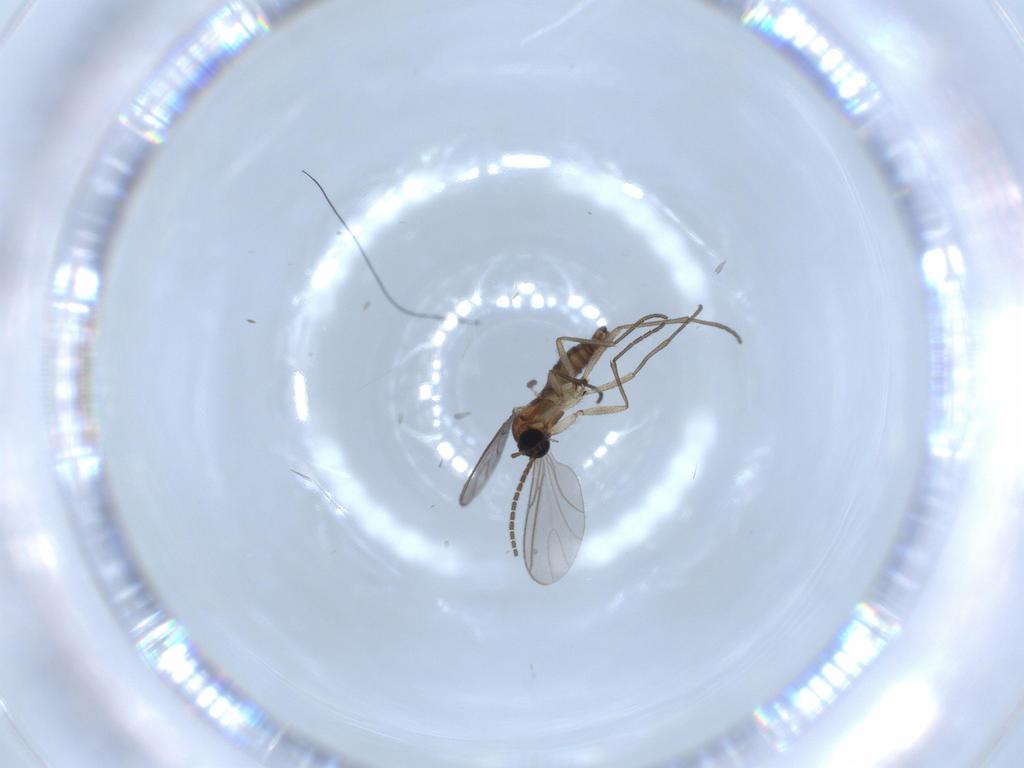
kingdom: Animalia
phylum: Arthropoda
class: Insecta
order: Diptera
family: Sciaridae
